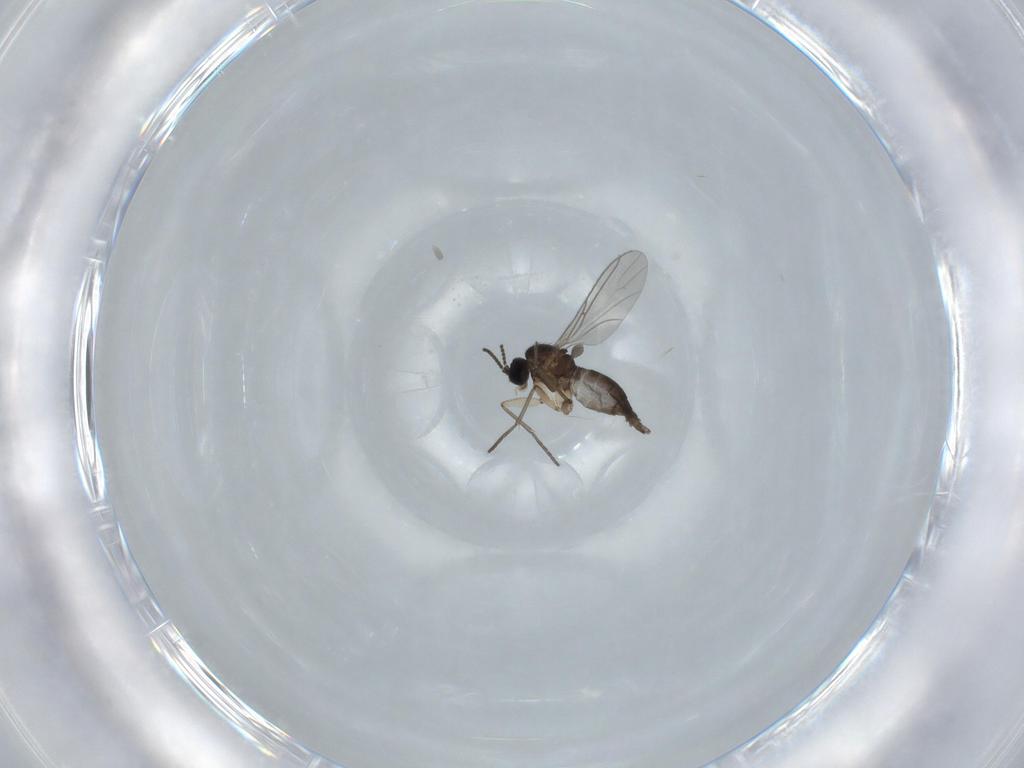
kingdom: Animalia
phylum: Arthropoda
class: Insecta
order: Diptera
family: Sciaridae
